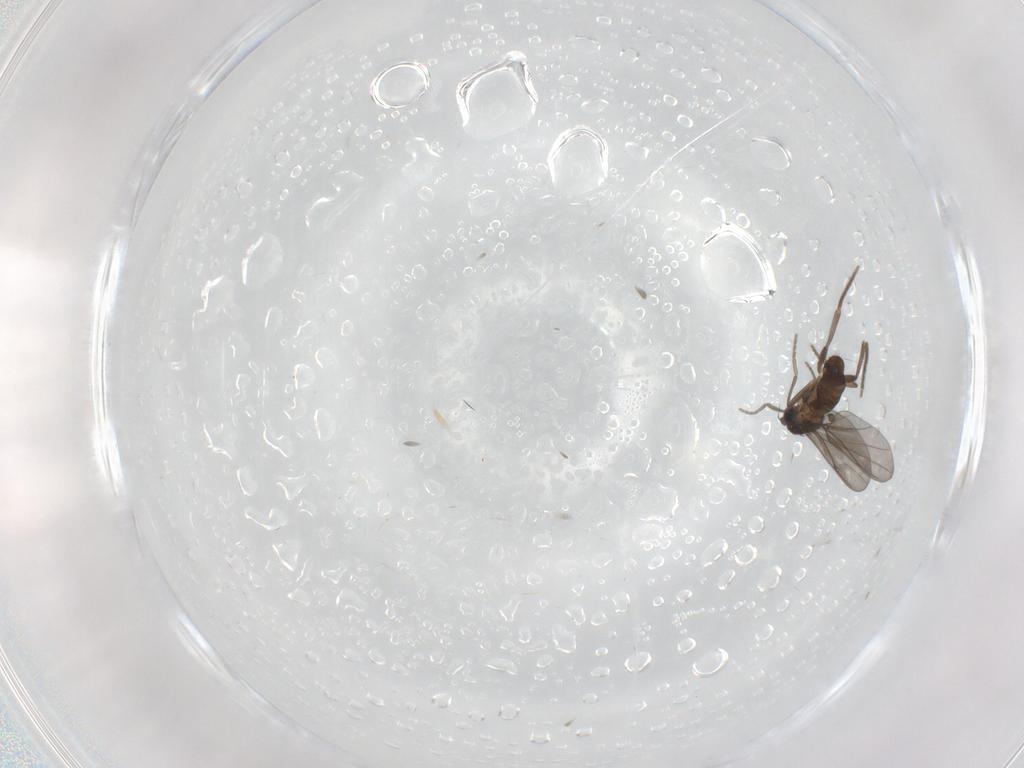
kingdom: Animalia
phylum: Arthropoda
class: Insecta
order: Diptera
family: Phoridae
